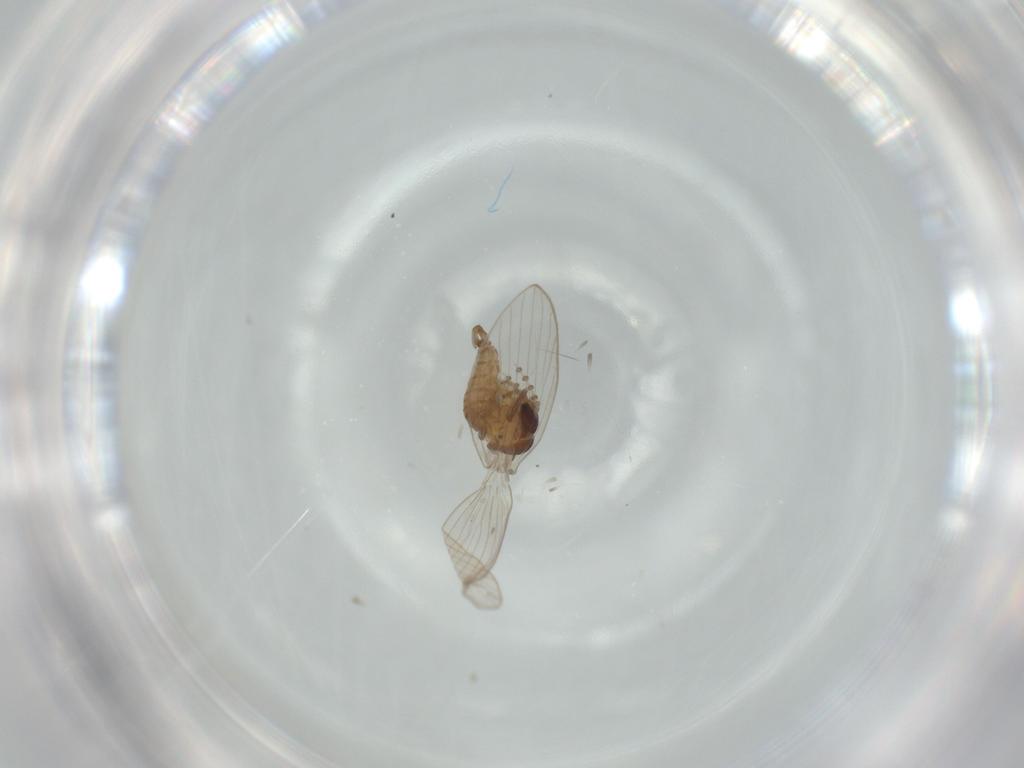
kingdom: Animalia
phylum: Arthropoda
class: Insecta
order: Diptera
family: Psychodidae
